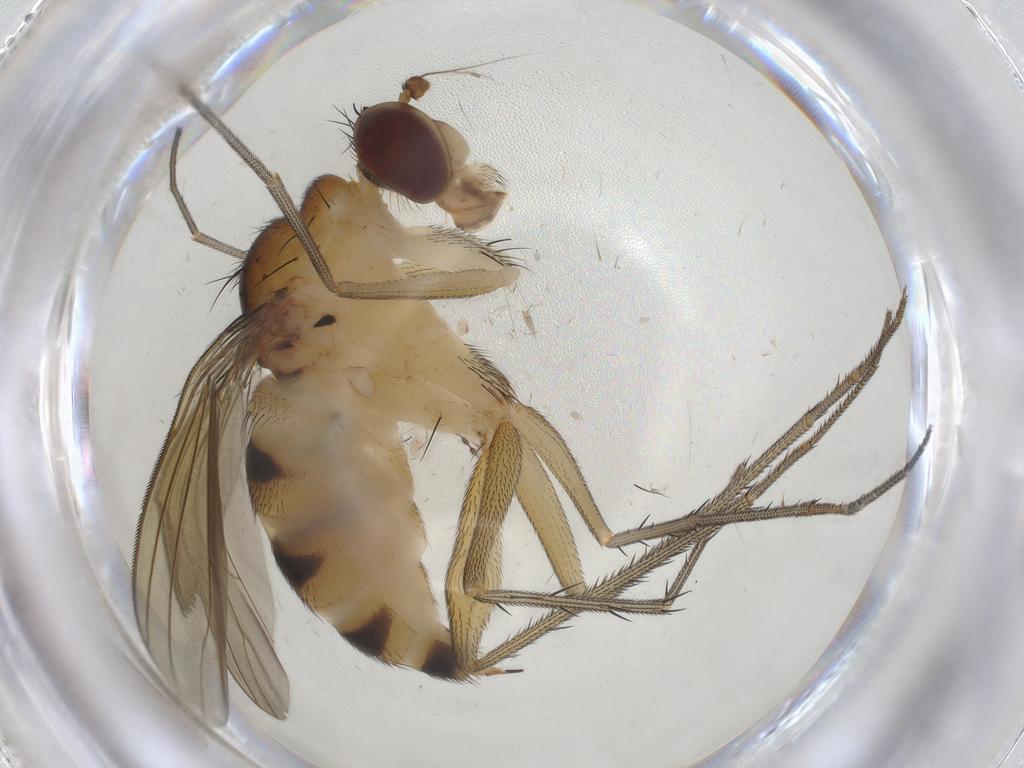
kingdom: Animalia
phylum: Arthropoda
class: Insecta
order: Diptera
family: Psychodidae
